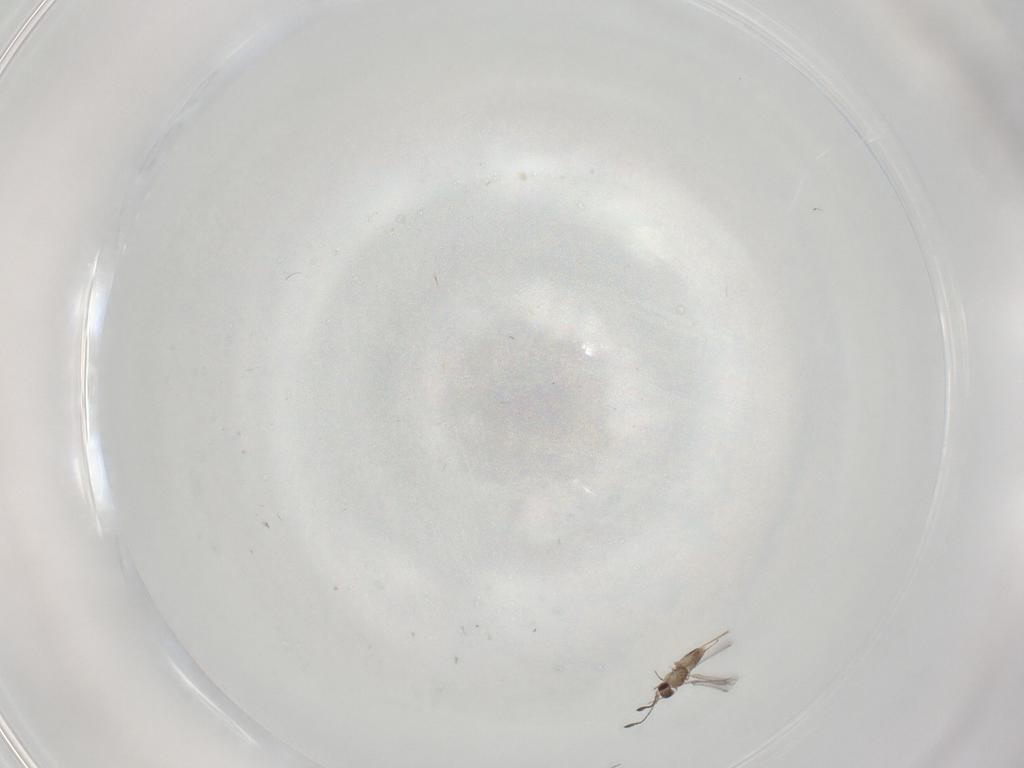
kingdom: Animalia
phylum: Arthropoda
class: Insecta
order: Hymenoptera
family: Mymaridae
